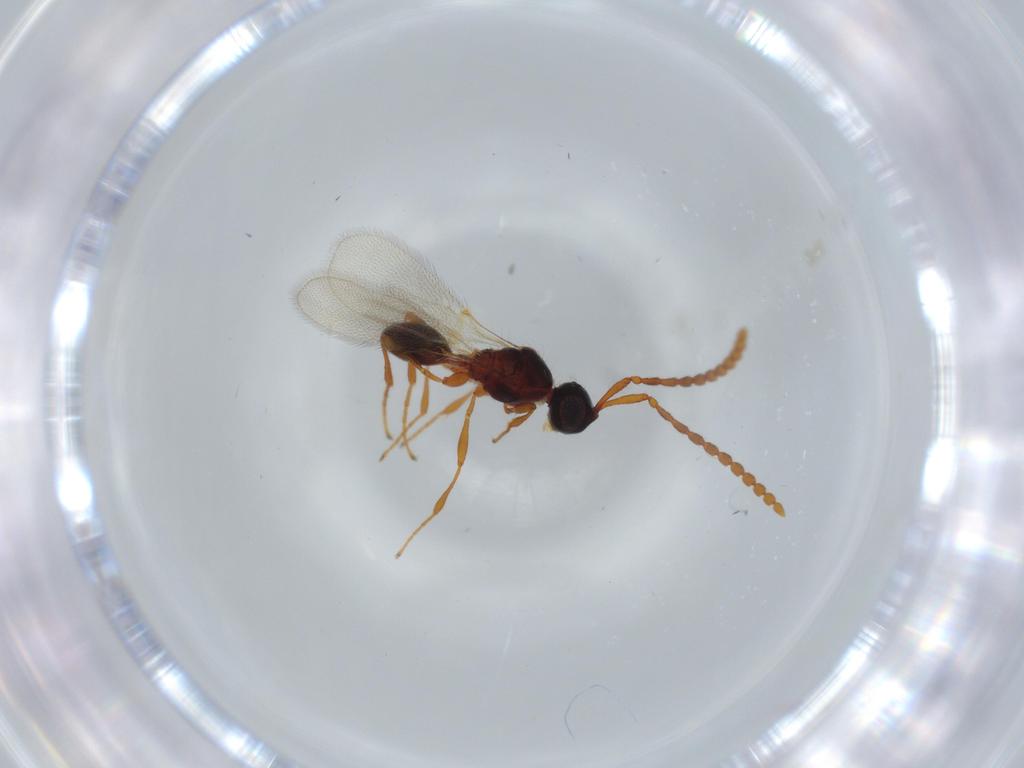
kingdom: Animalia
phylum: Arthropoda
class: Insecta
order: Hymenoptera
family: Diapriidae
